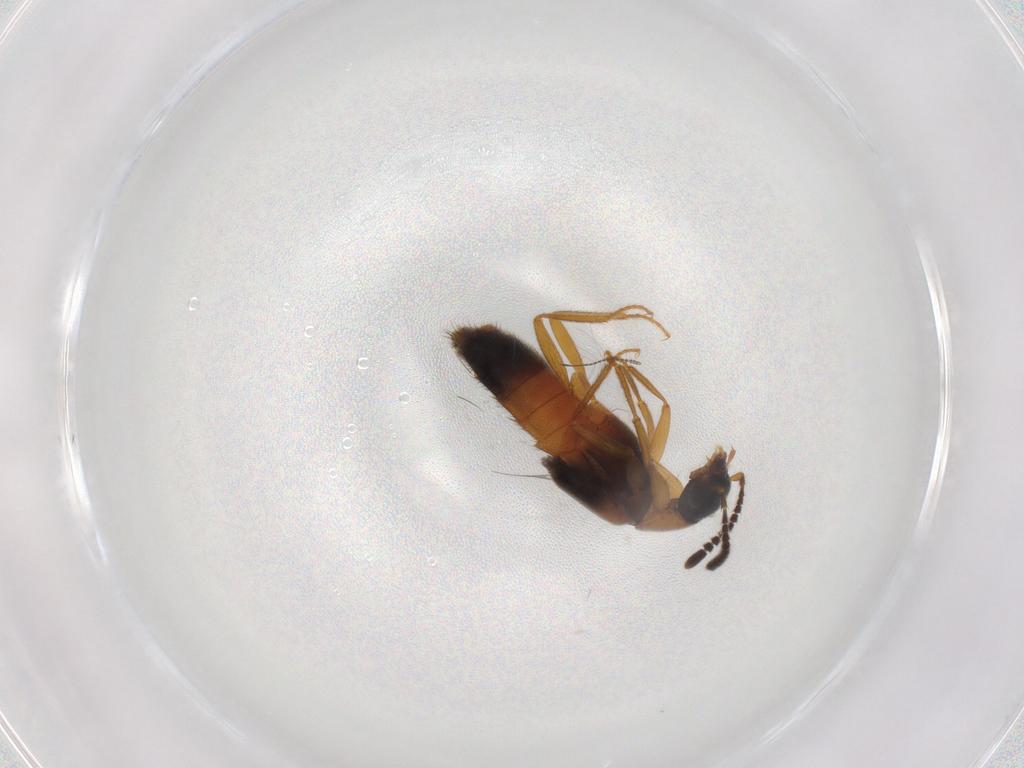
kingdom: Animalia
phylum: Arthropoda
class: Insecta
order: Coleoptera
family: Staphylinidae
